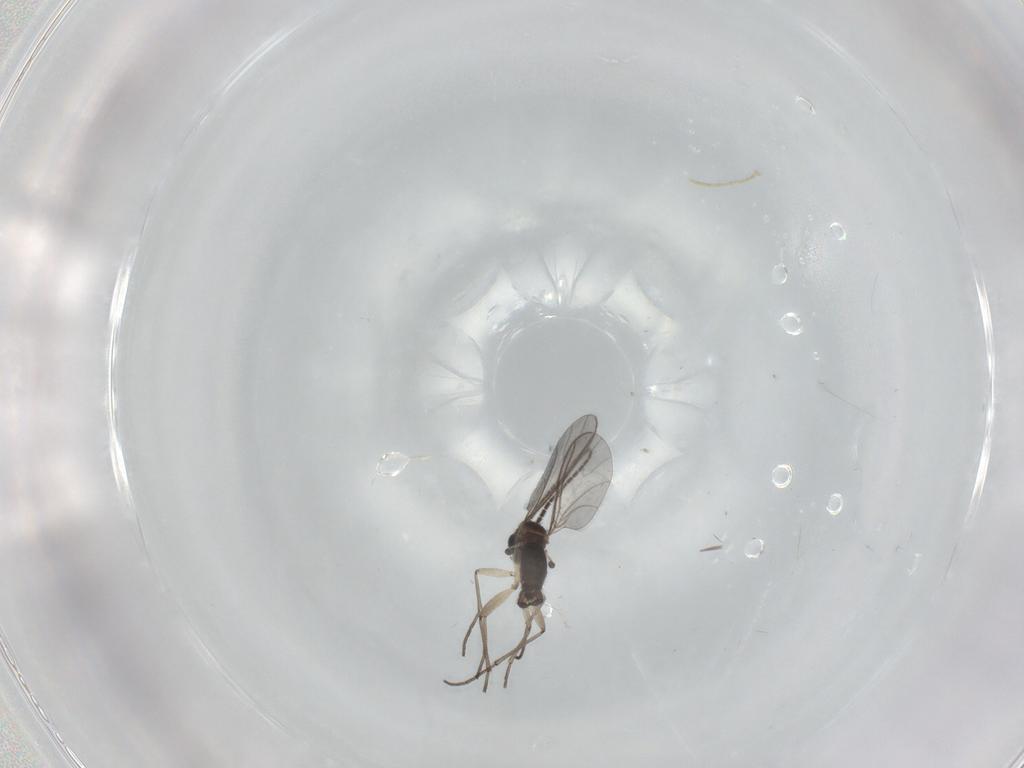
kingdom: Animalia
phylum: Arthropoda
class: Insecta
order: Diptera
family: Sciaridae
